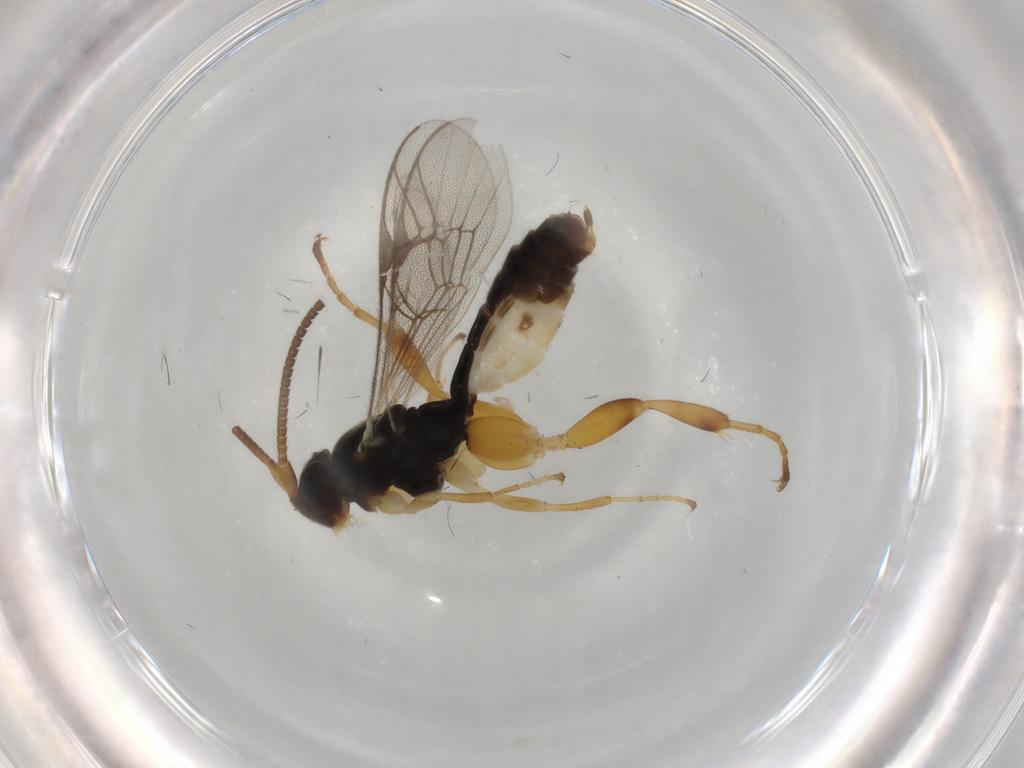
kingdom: Animalia
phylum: Arthropoda
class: Insecta
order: Hymenoptera
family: Ichneumonidae
